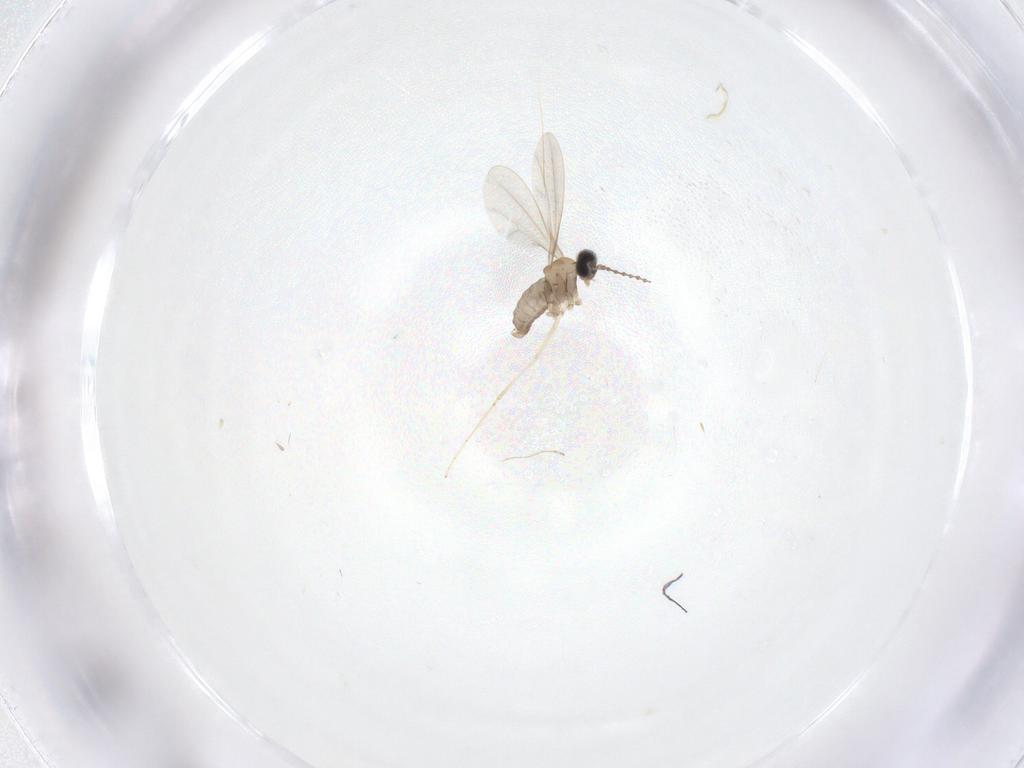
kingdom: Animalia
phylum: Arthropoda
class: Insecta
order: Diptera
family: Cecidomyiidae
